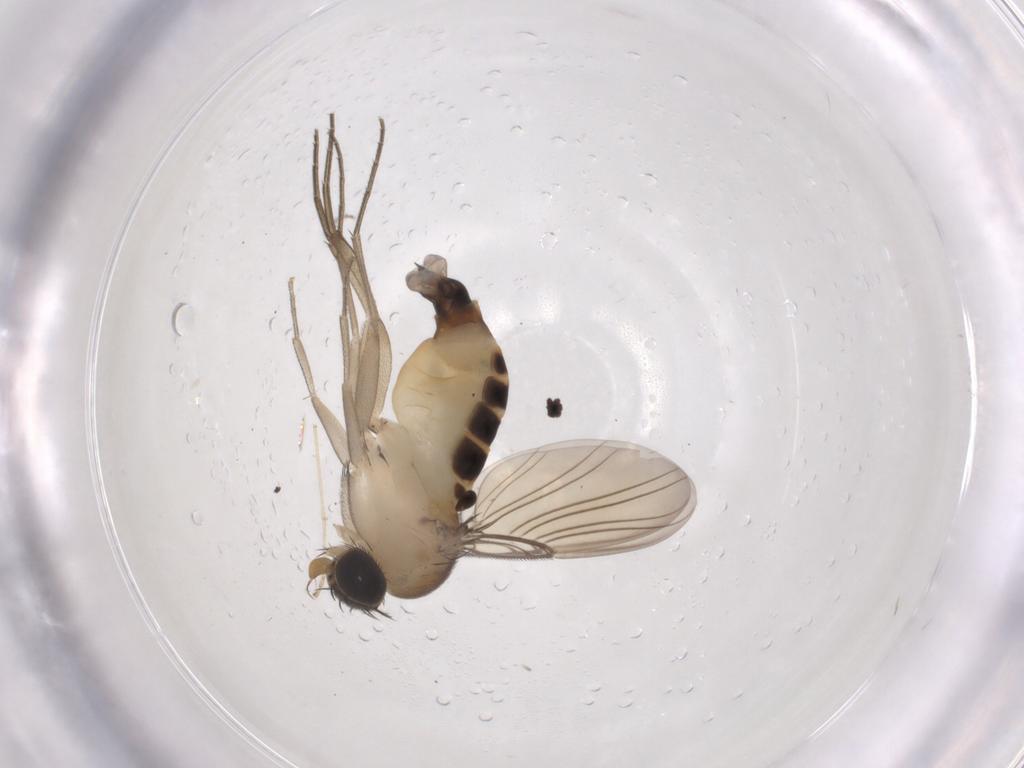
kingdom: Animalia
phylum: Arthropoda
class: Insecta
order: Diptera
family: Phoridae
